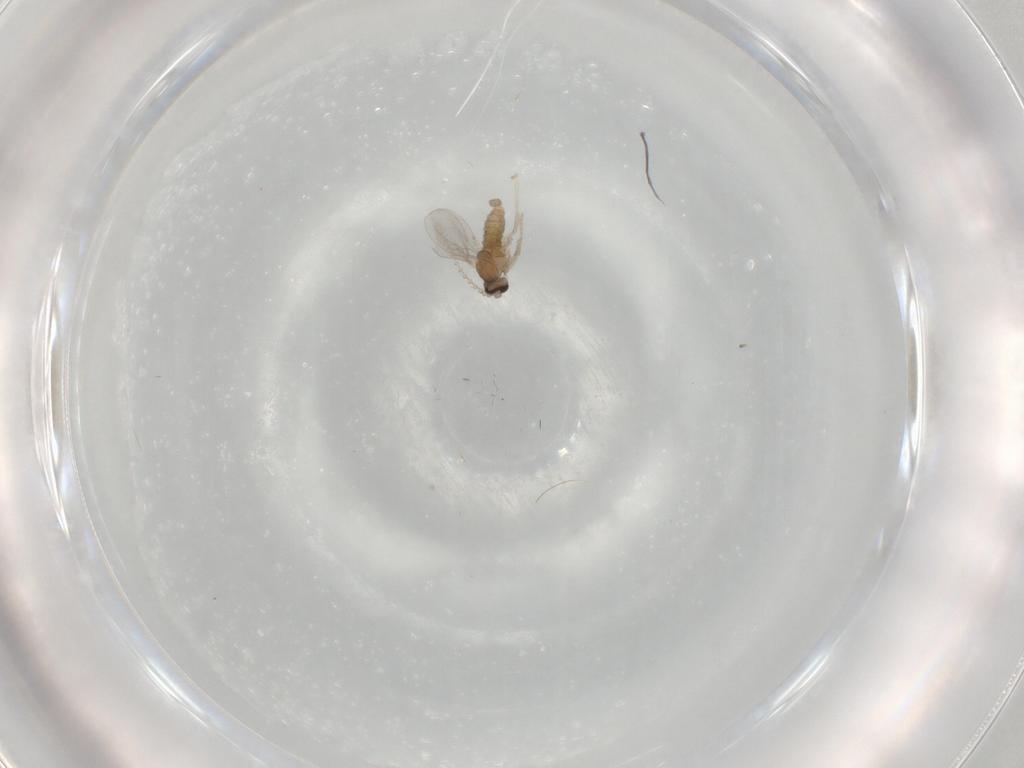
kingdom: Animalia
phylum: Arthropoda
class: Insecta
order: Diptera
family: Cecidomyiidae
